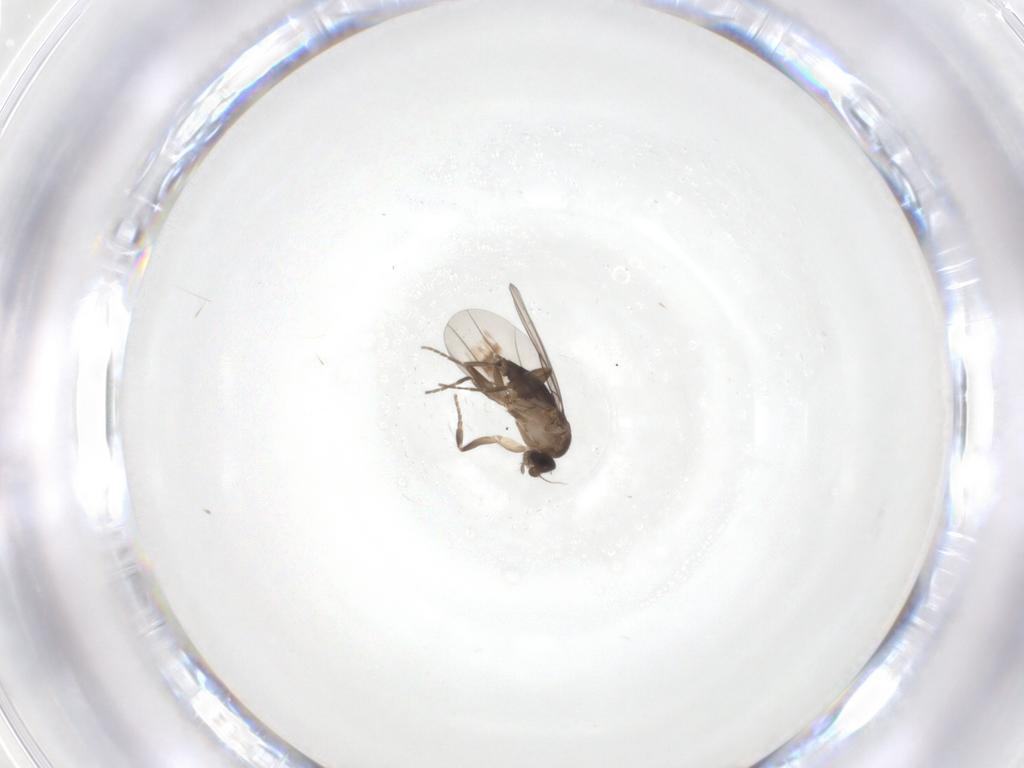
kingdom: Animalia
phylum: Arthropoda
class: Insecta
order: Diptera
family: Phoridae
